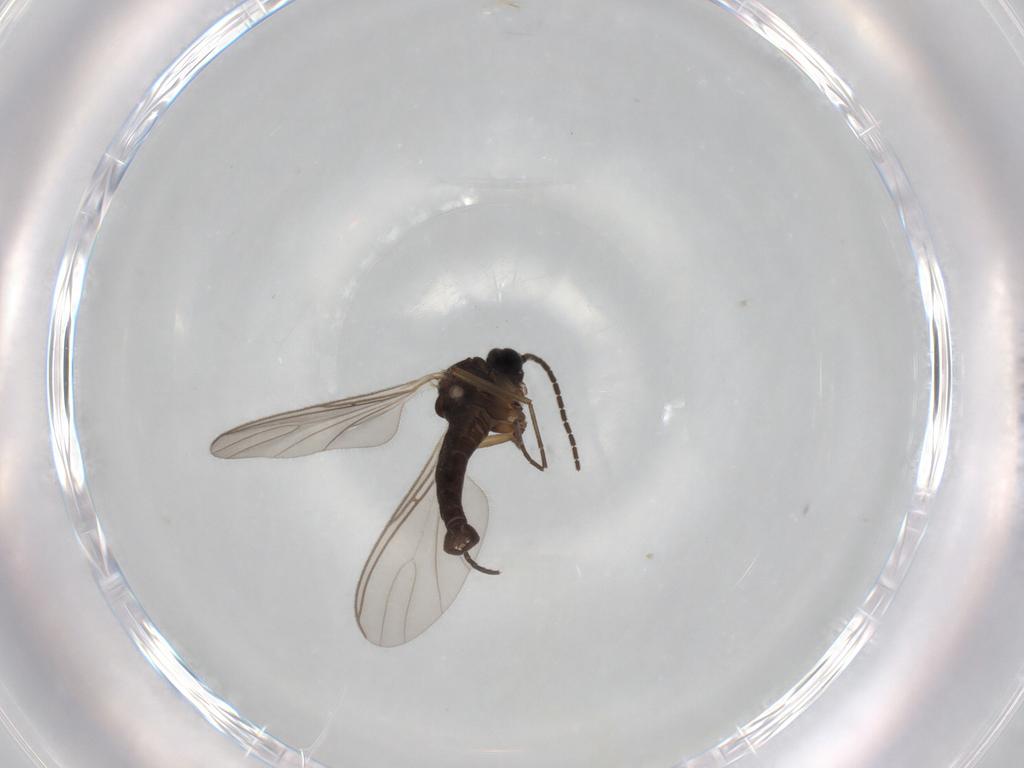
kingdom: Animalia
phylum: Arthropoda
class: Insecta
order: Diptera
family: Sciaridae
